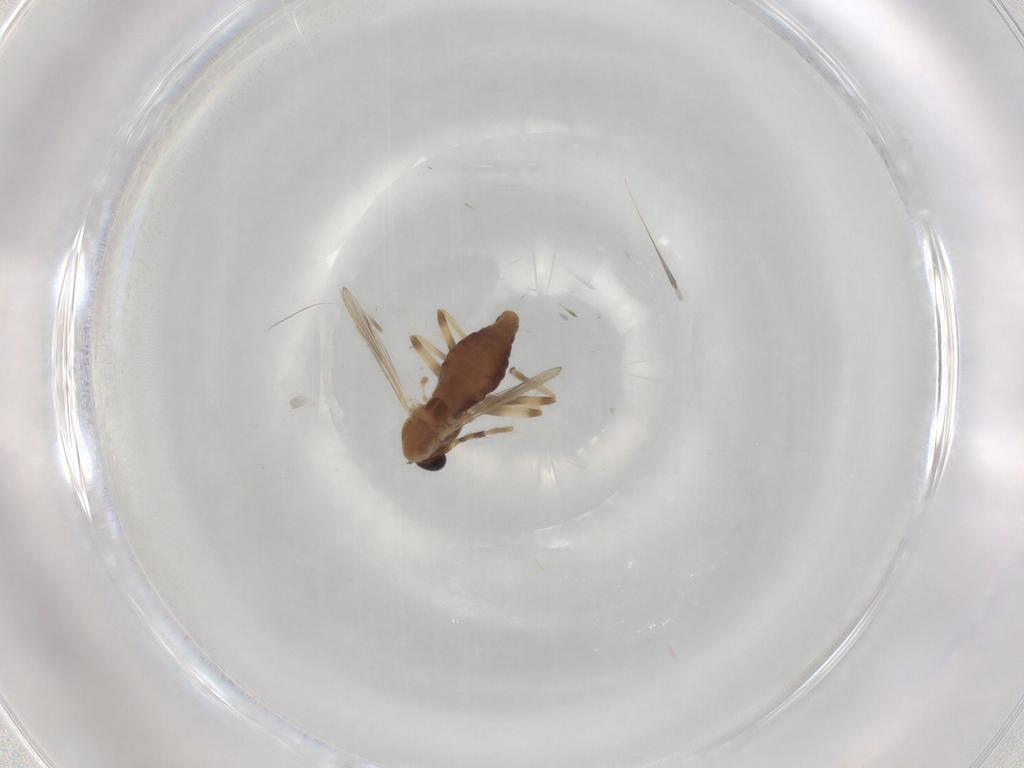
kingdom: Animalia
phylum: Arthropoda
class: Insecta
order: Diptera
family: Chironomidae
